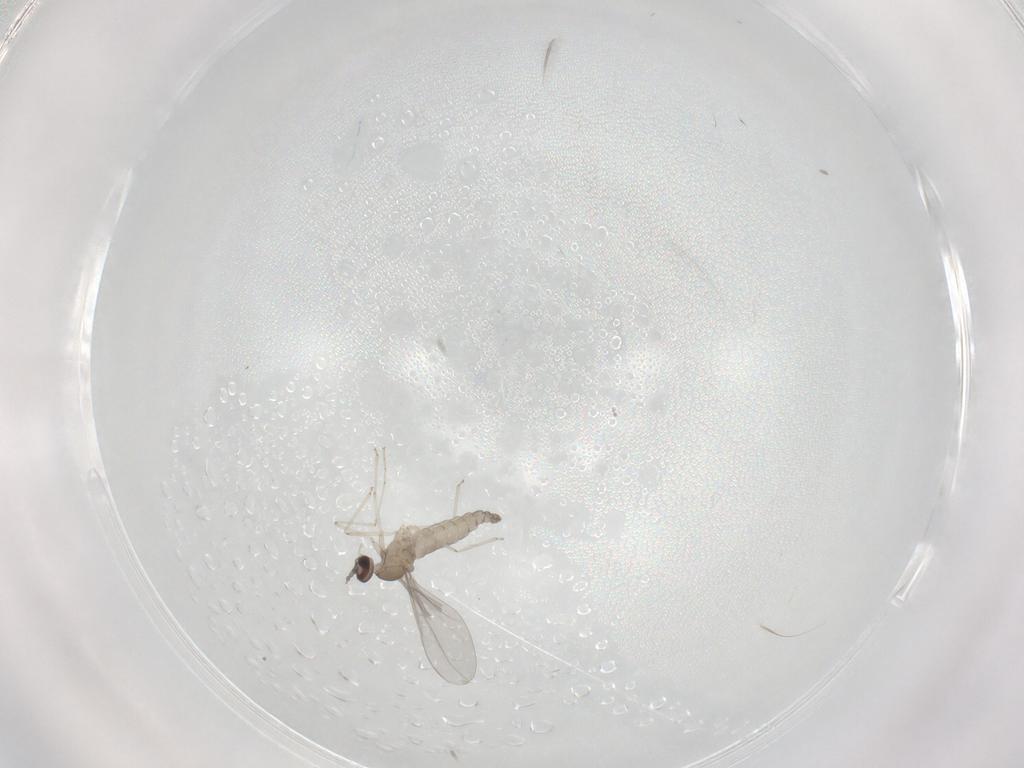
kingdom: Animalia
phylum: Arthropoda
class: Insecta
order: Diptera
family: Cecidomyiidae
